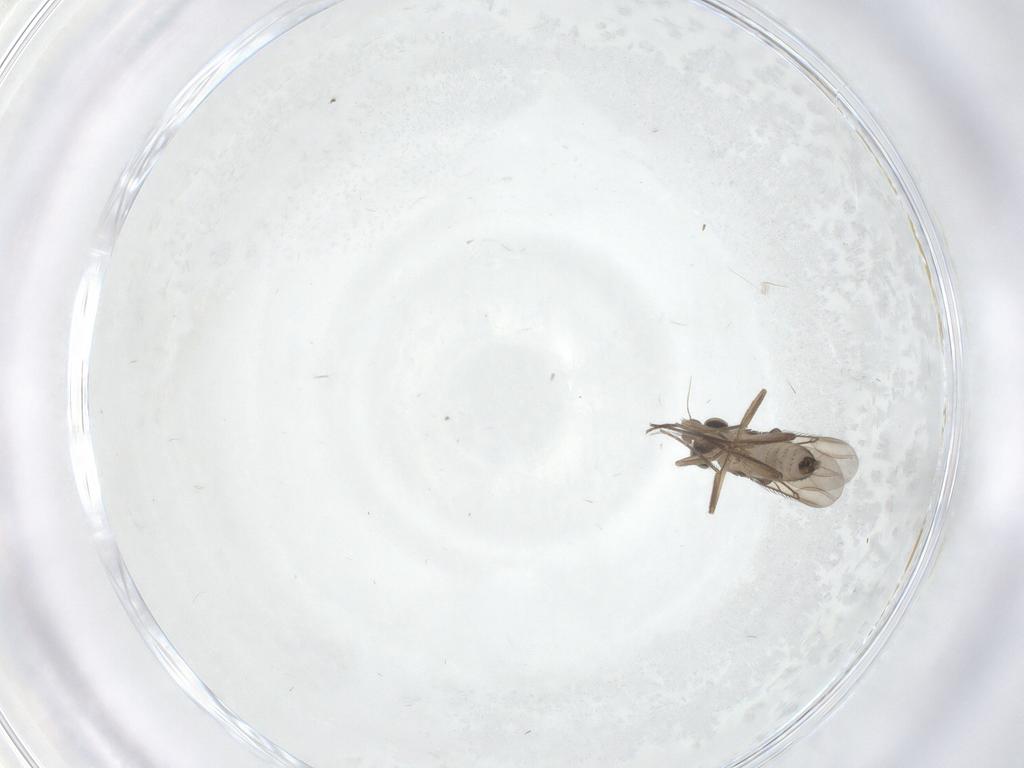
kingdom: Animalia
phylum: Arthropoda
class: Insecta
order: Diptera
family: Phoridae
